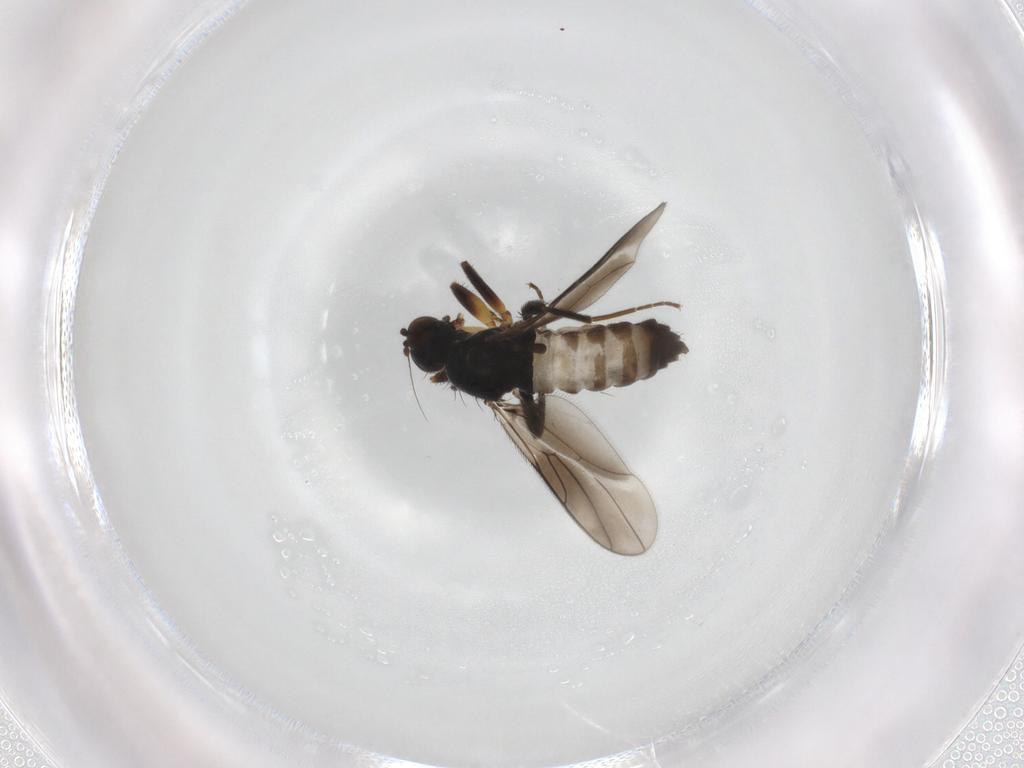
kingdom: Animalia
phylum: Arthropoda
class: Insecta
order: Diptera
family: Hybotidae
